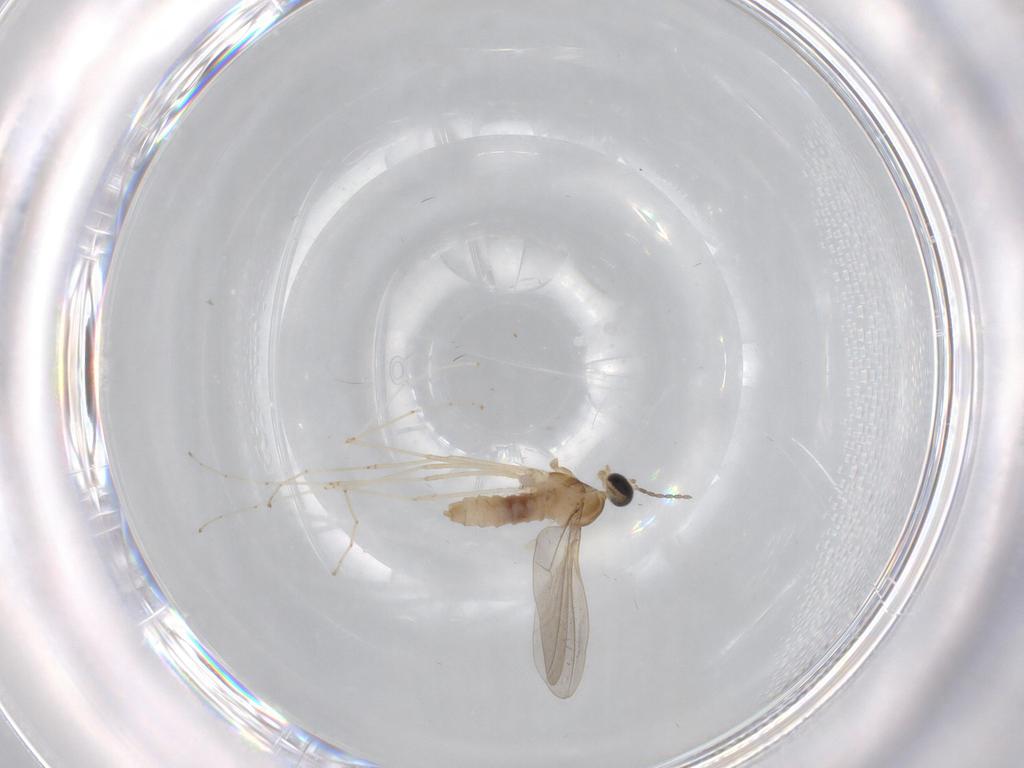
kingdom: Animalia
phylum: Arthropoda
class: Insecta
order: Diptera
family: Cecidomyiidae
